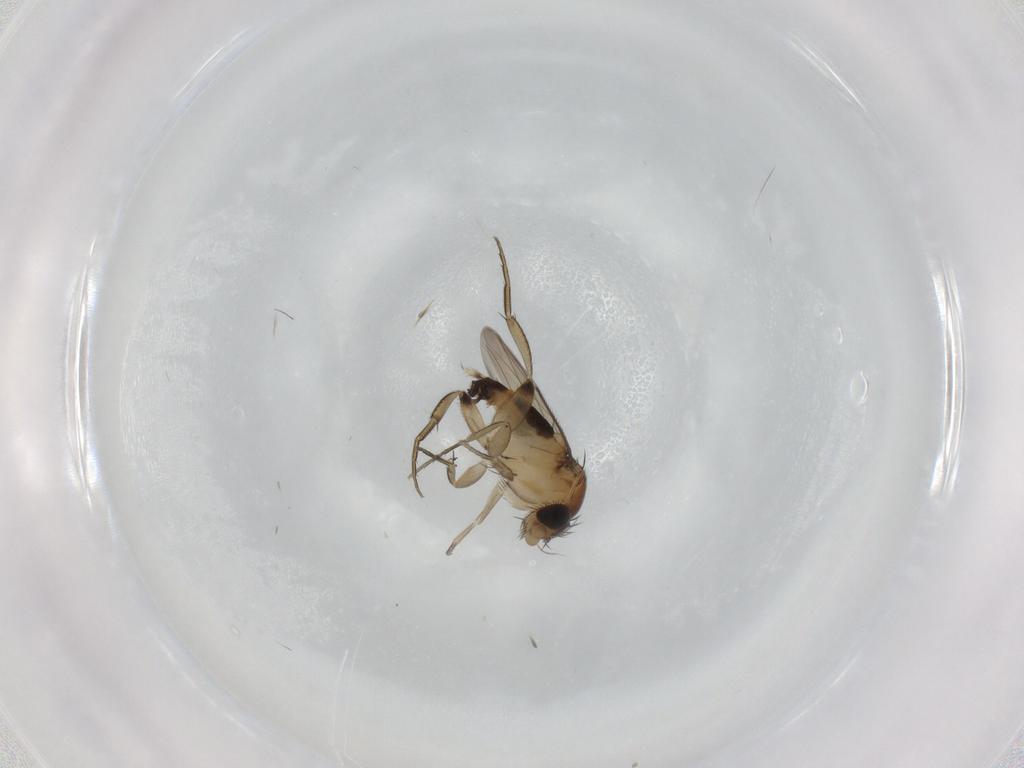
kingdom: Animalia
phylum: Arthropoda
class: Insecta
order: Diptera
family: Phoridae
